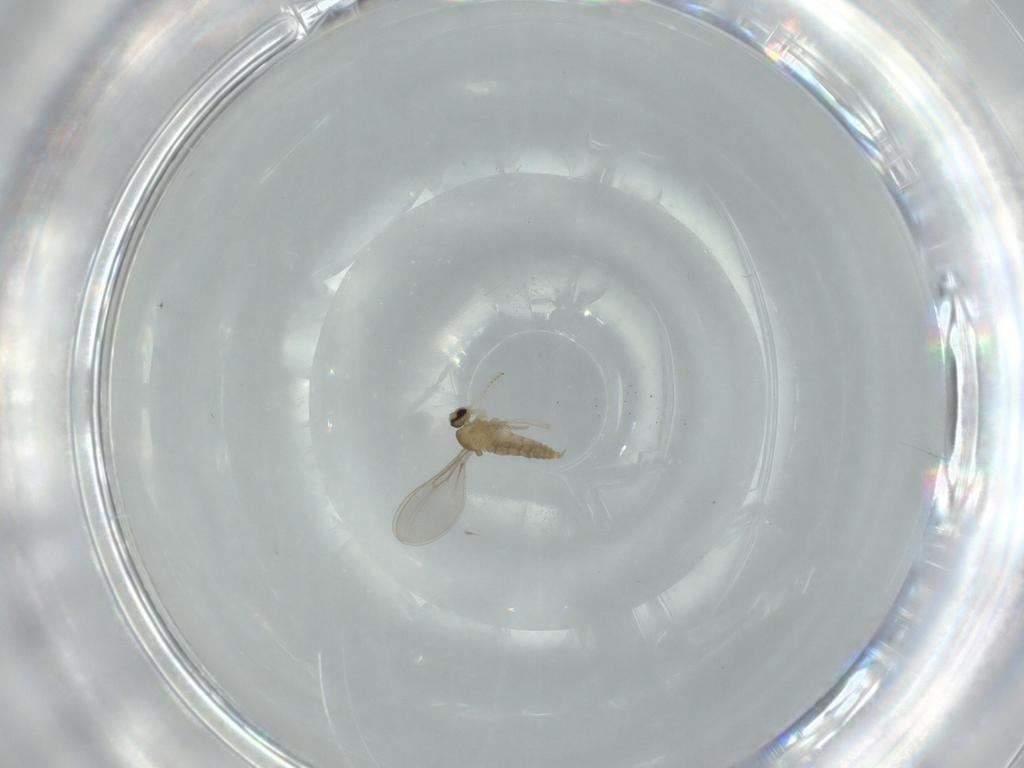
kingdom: Animalia
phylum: Arthropoda
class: Insecta
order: Diptera
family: Cecidomyiidae
